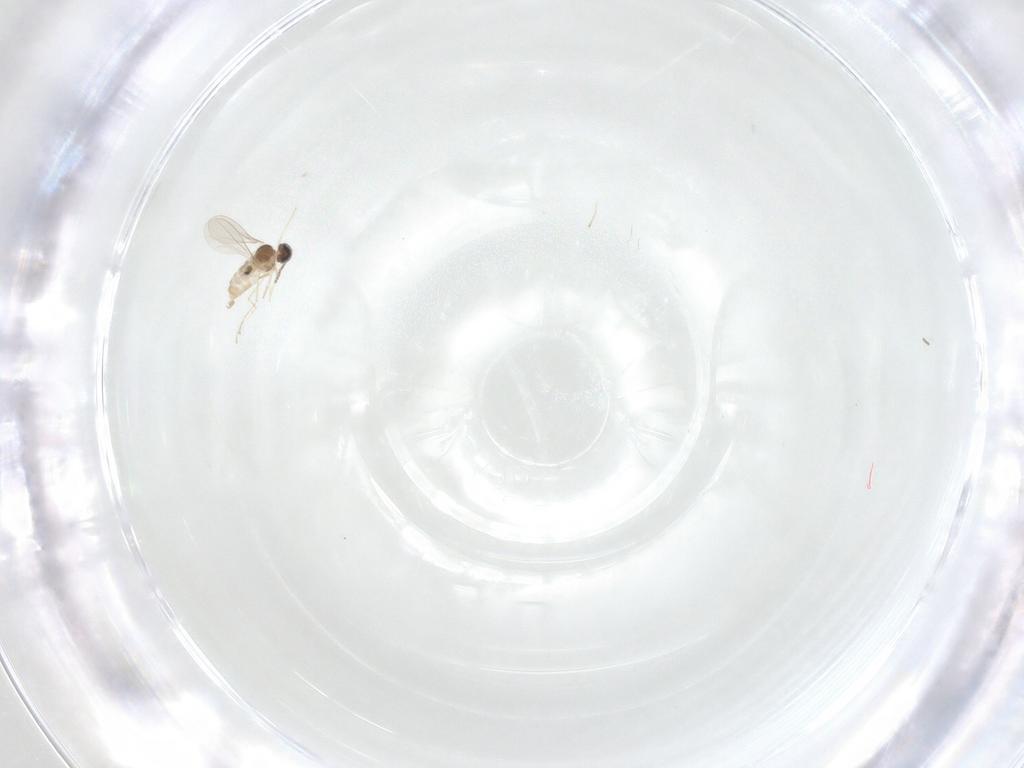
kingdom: Animalia
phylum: Arthropoda
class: Insecta
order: Diptera
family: Cecidomyiidae
